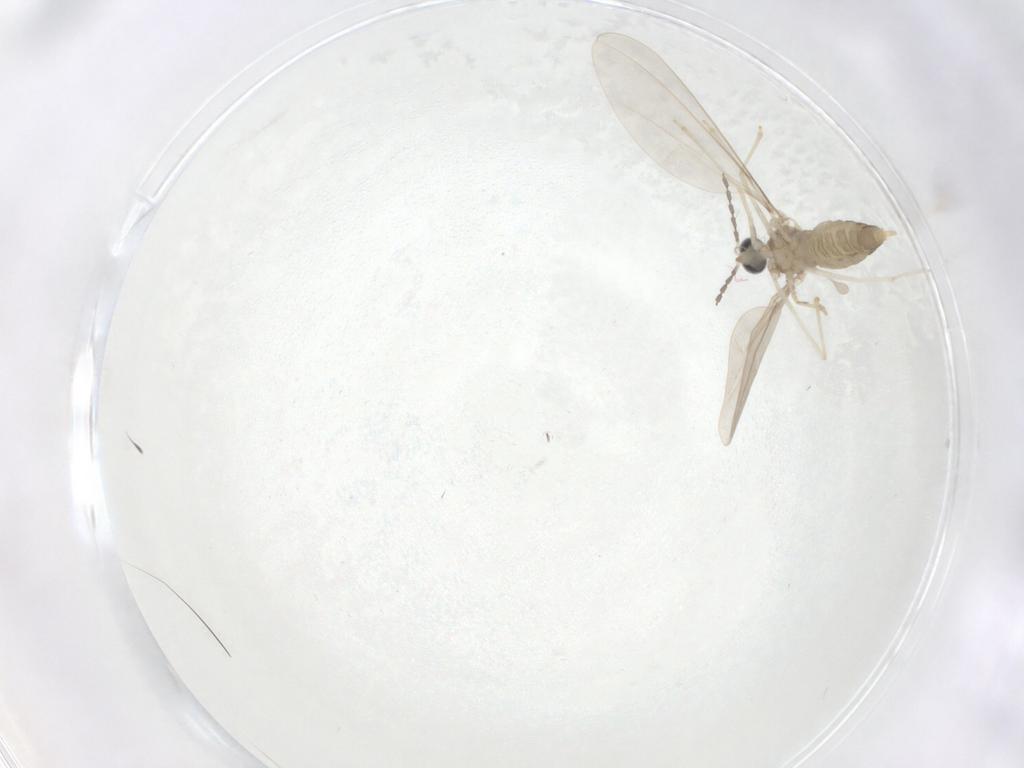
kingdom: Animalia
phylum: Arthropoda
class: Insecta
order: Diptera
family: Cecidomyiidae
